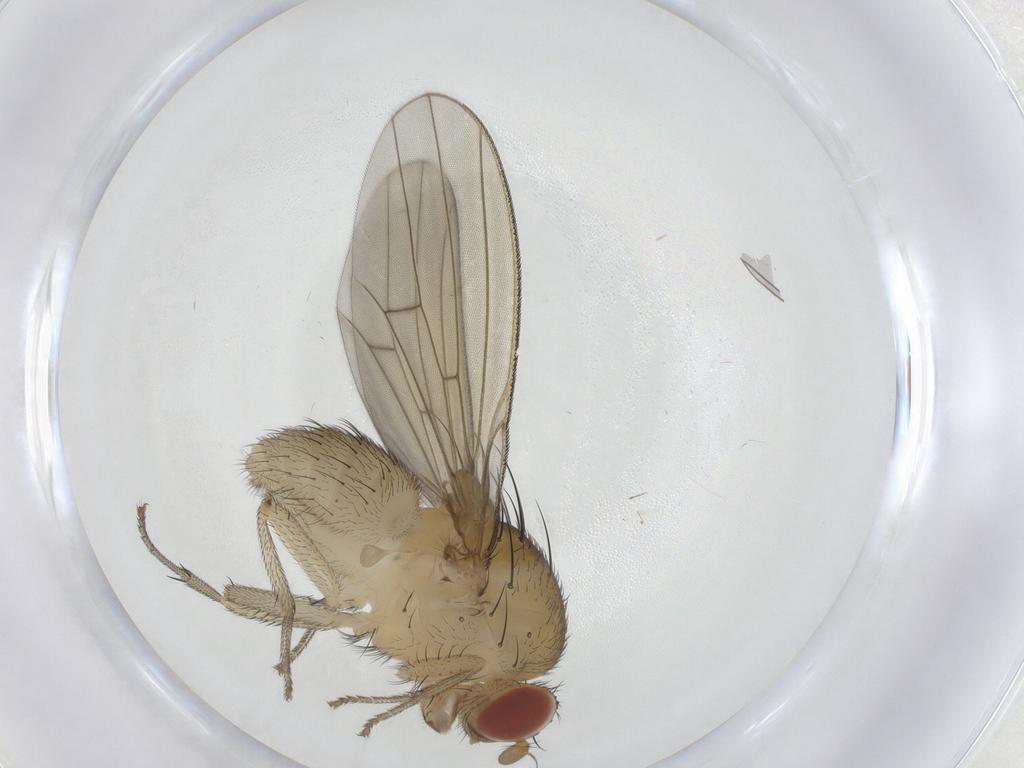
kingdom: Animalia
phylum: Arthropoda
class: Insecta
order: Diptera
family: Sciaridae
